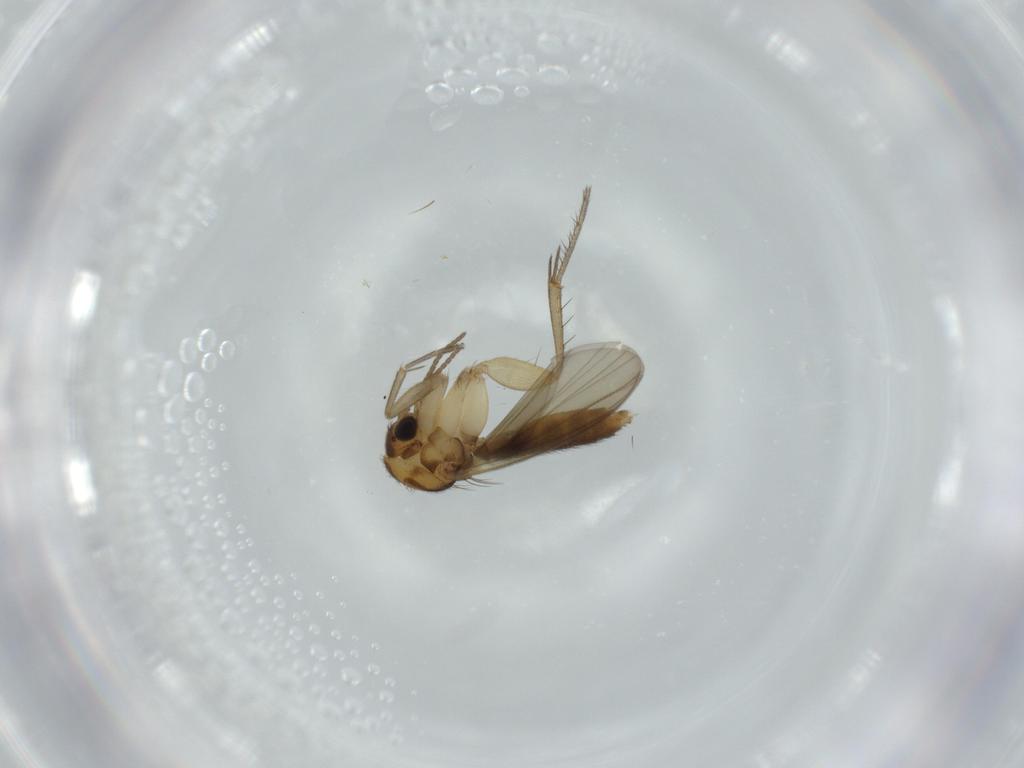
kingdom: Animalia
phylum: Arthropoda
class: Insecta
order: Diptera
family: Mycetophilidae
